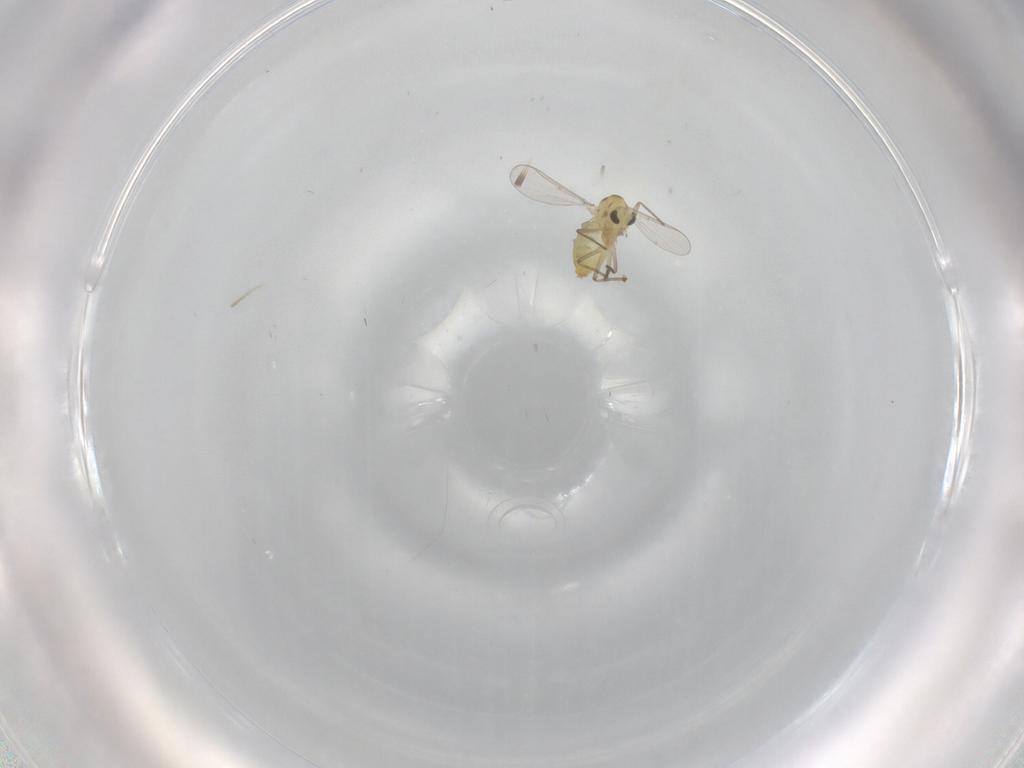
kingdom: Animalia
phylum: Arthropoda
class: Insecta
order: Diptera
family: Chironomidae
